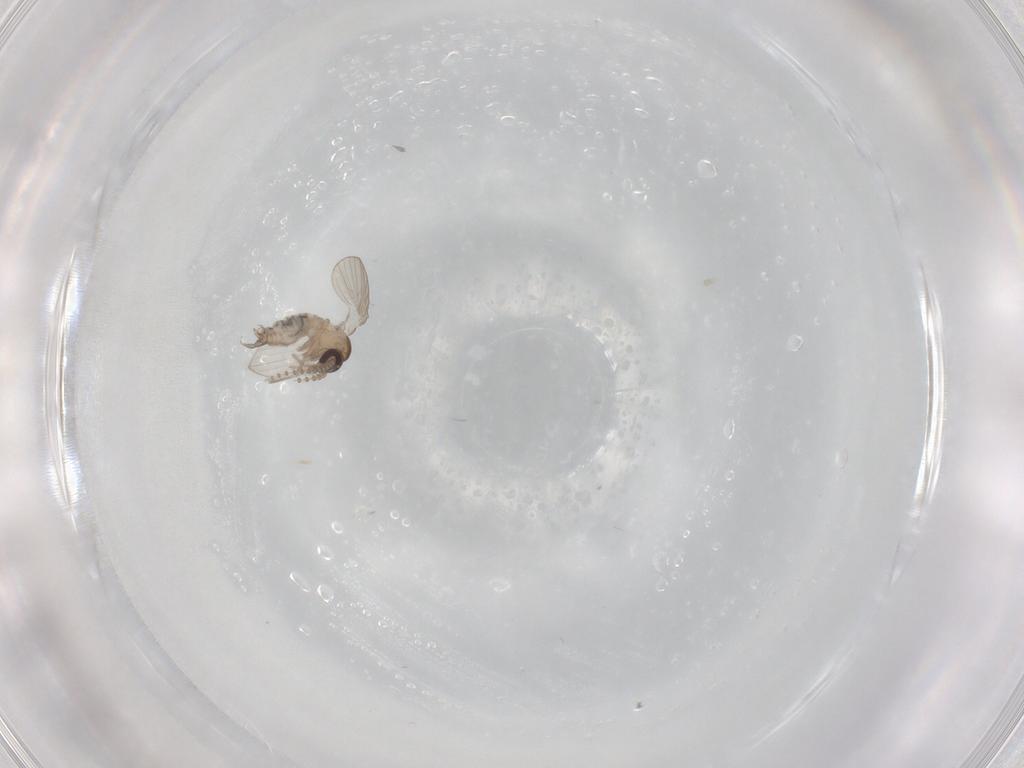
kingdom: Animalia
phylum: Arthropoda
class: Insecta
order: Diptera
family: Psychodidae
